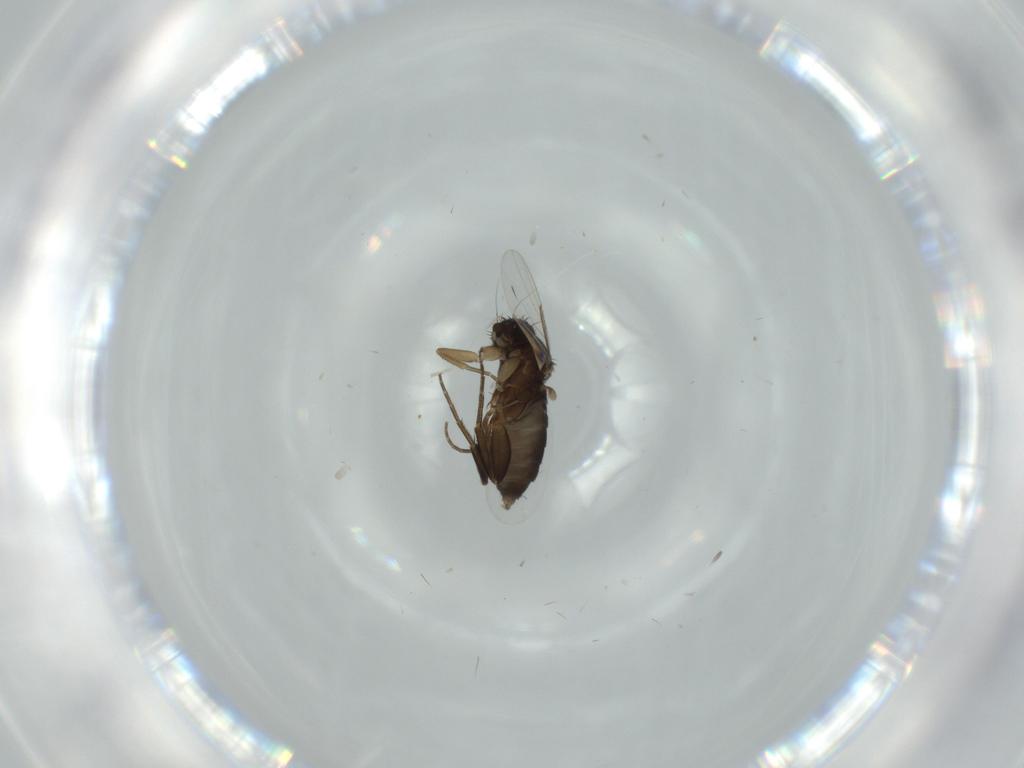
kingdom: Animalia
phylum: Arthropoda
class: Insecta
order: Diptera
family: Phoridae
